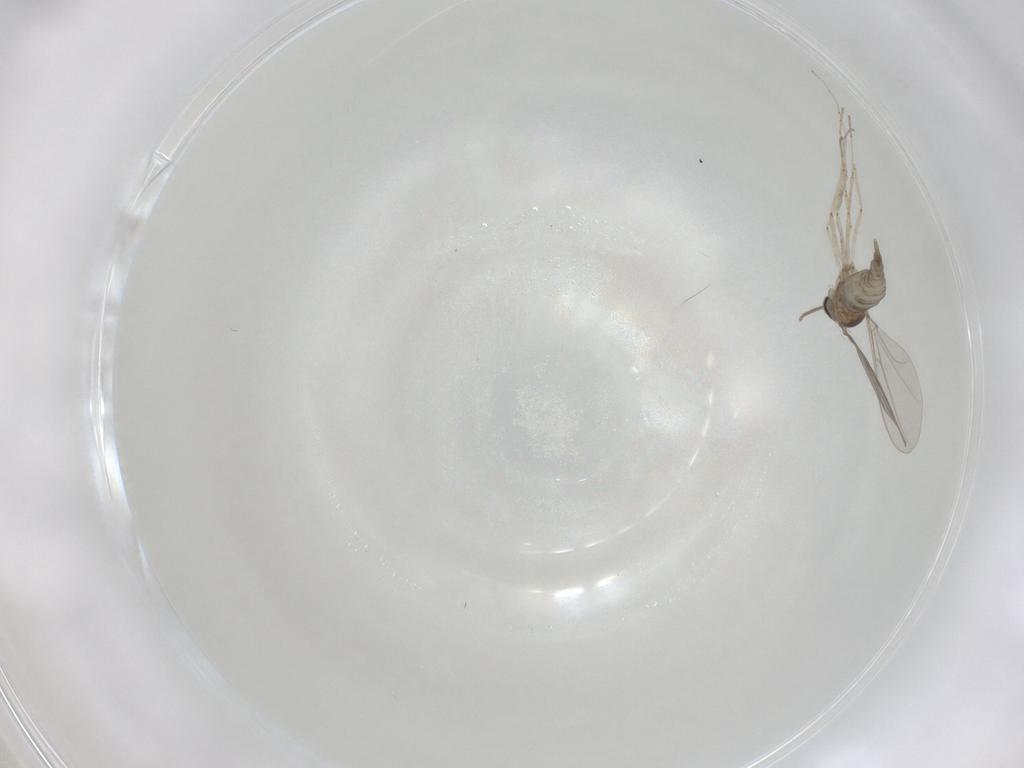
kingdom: Animalia
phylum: Arthropoda
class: Insecta
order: Diptera
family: Cecidomyiidae
